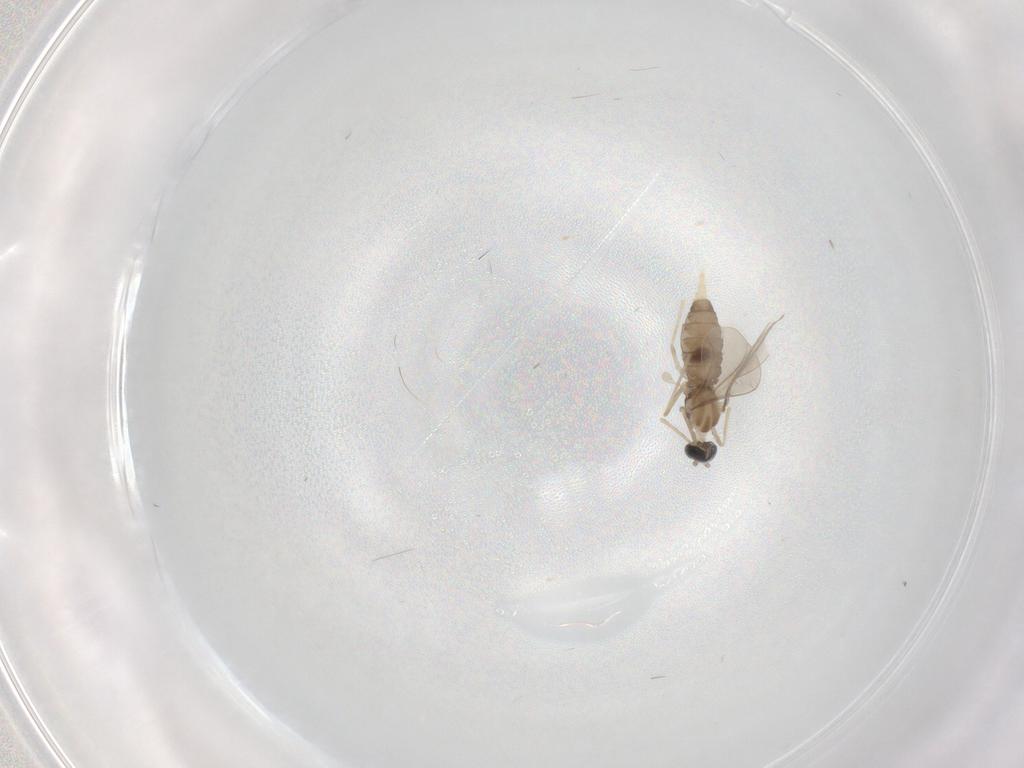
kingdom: Animalia
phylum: Arthropoda
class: Insecta
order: Diptera
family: Cecidomyiidae
